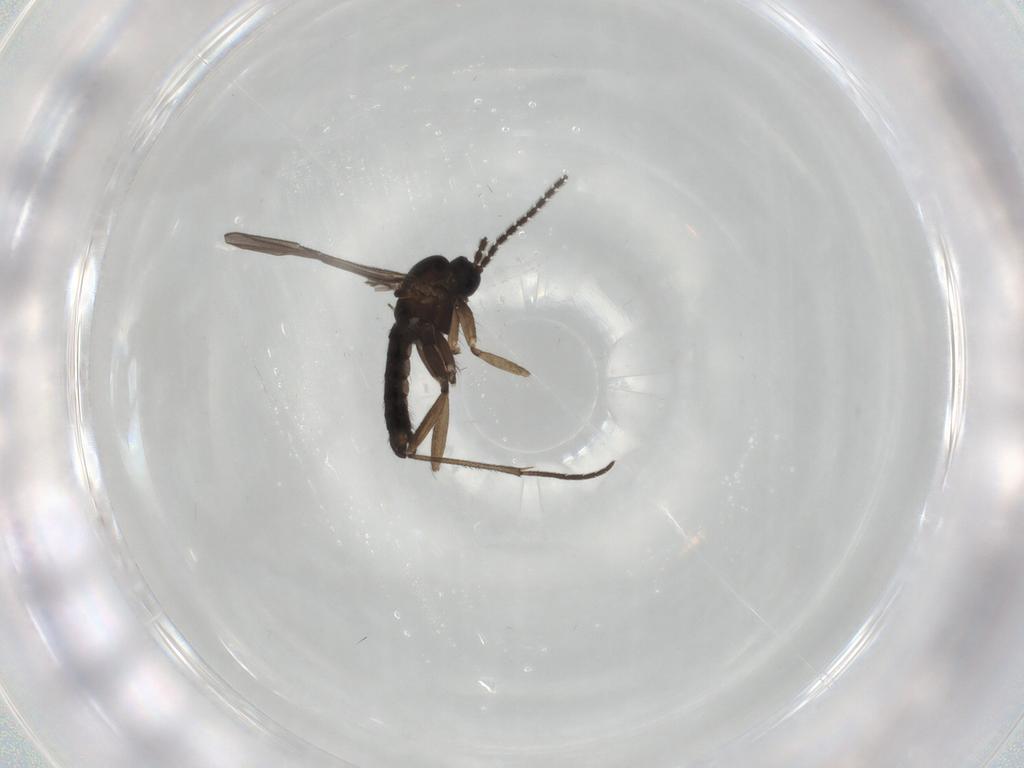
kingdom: Animalia
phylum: Arthropoda
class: Insecta
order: Diptera
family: Sciaridae
